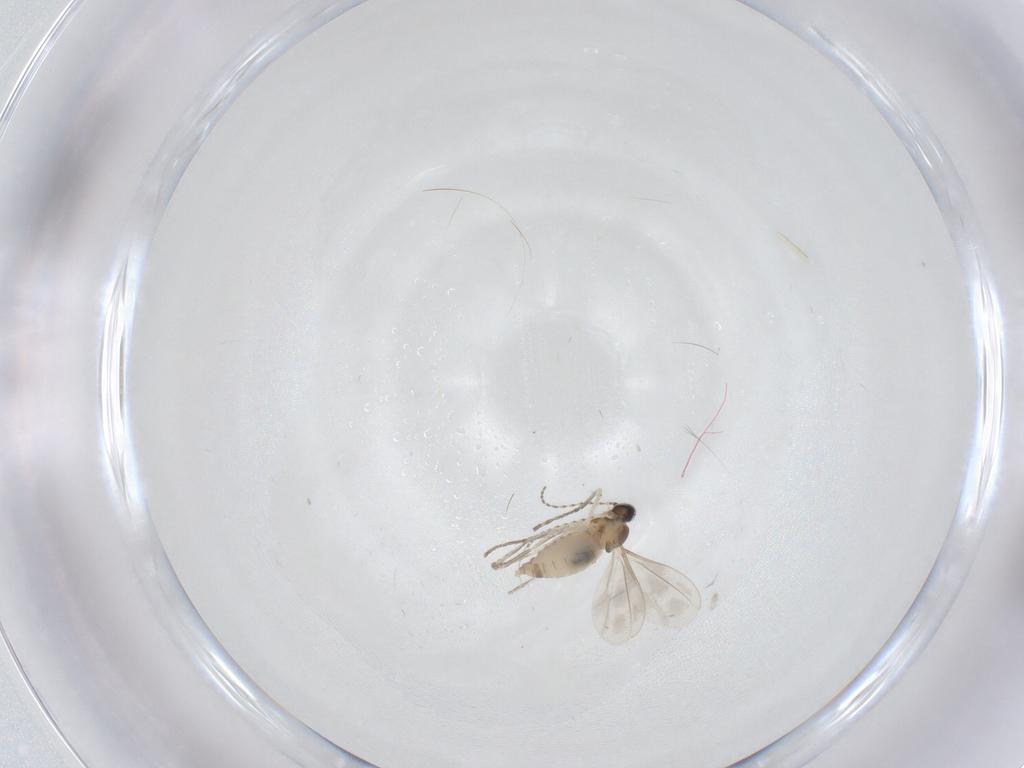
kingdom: Animalia
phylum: Arthropoda
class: Insecta
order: Diptera
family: Cecidomyiidae
